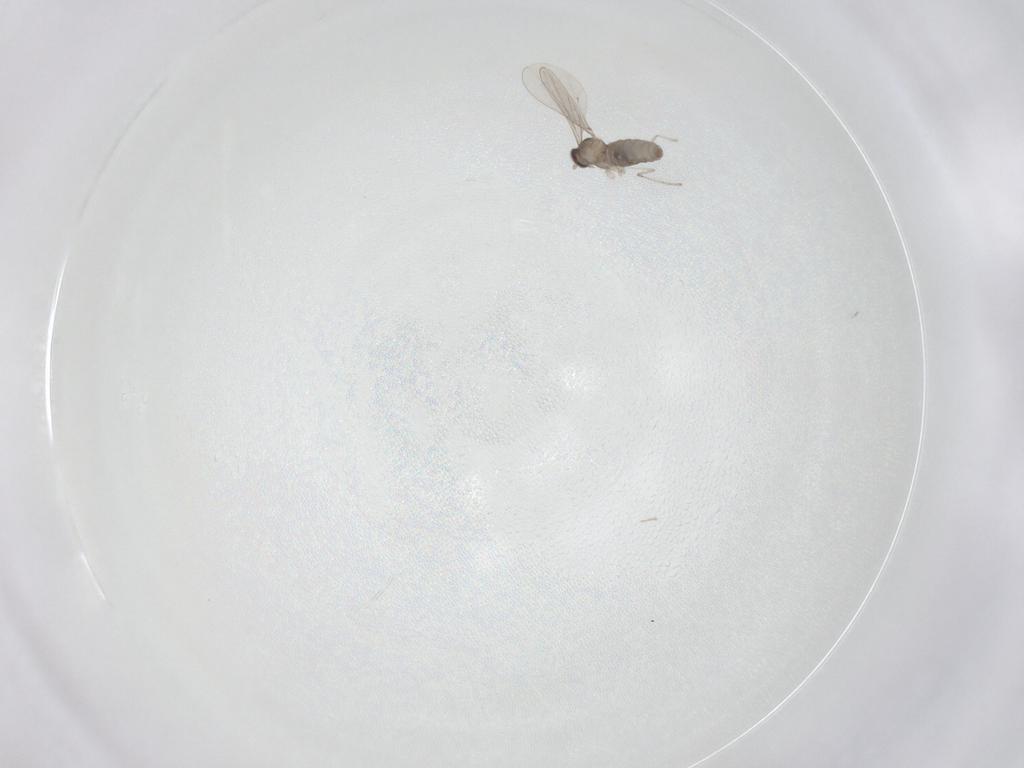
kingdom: Animalia
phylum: Arthropoda
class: Insecta
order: Diptera
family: Cecidomyiidae
